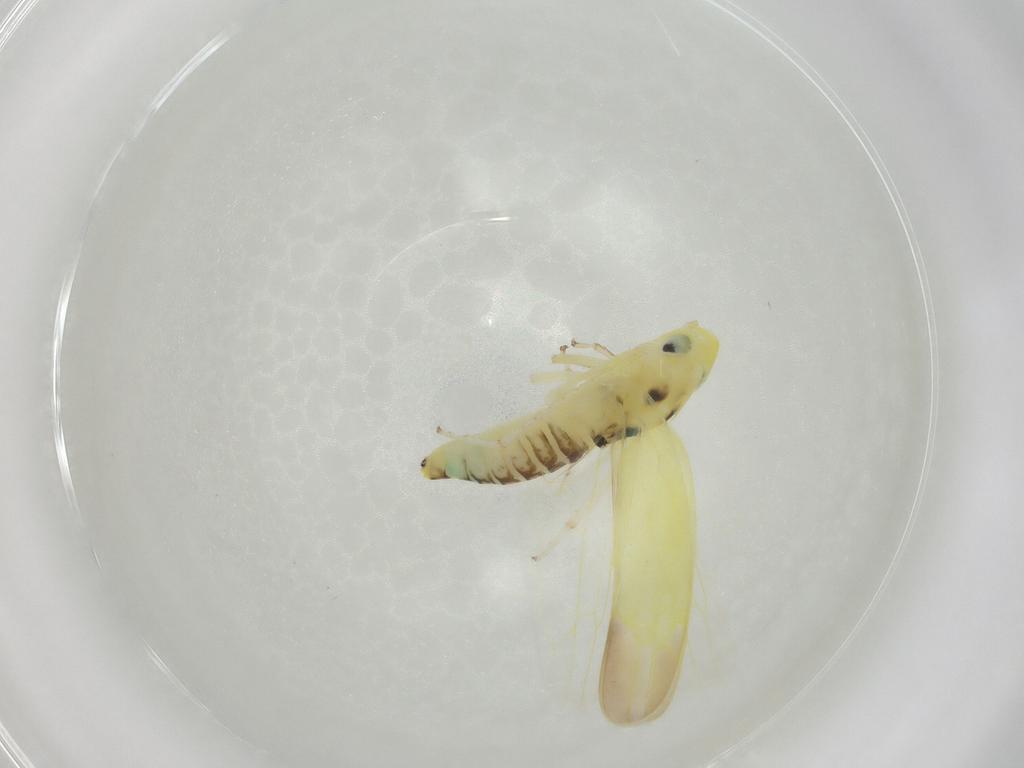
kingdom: Animalia
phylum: Arthropoda
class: Insecta
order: Hemiptera
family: Cicadellidae
